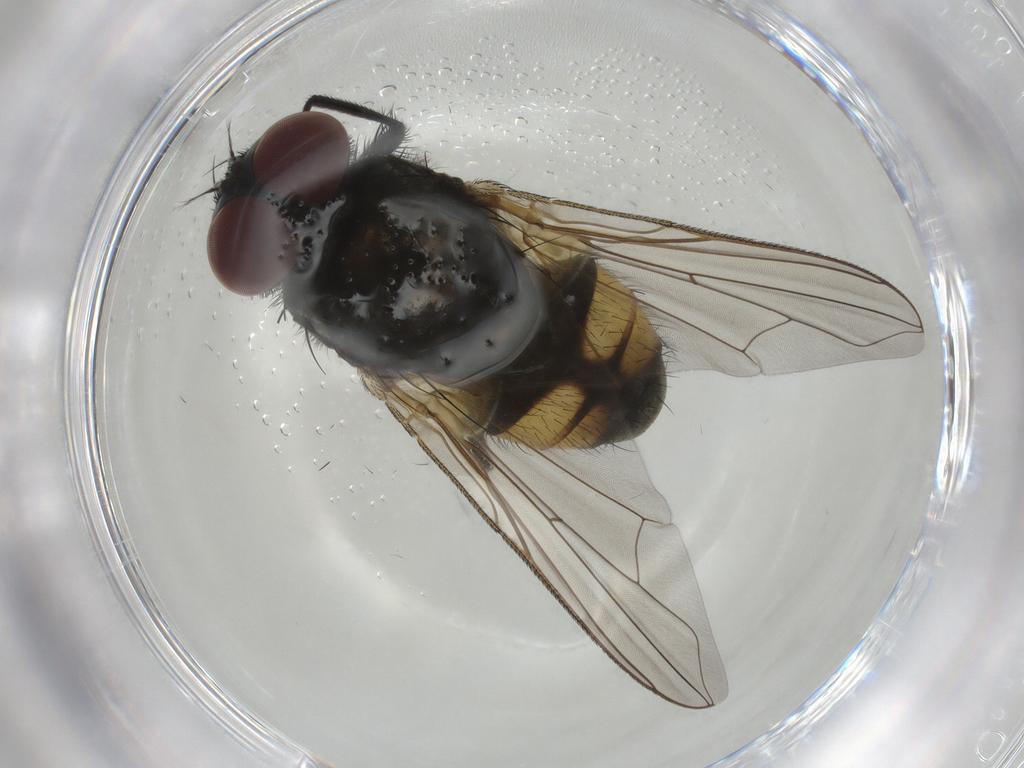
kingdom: Animalia
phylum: Arthropoda
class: Insecta
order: Diptera
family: Muscidae
